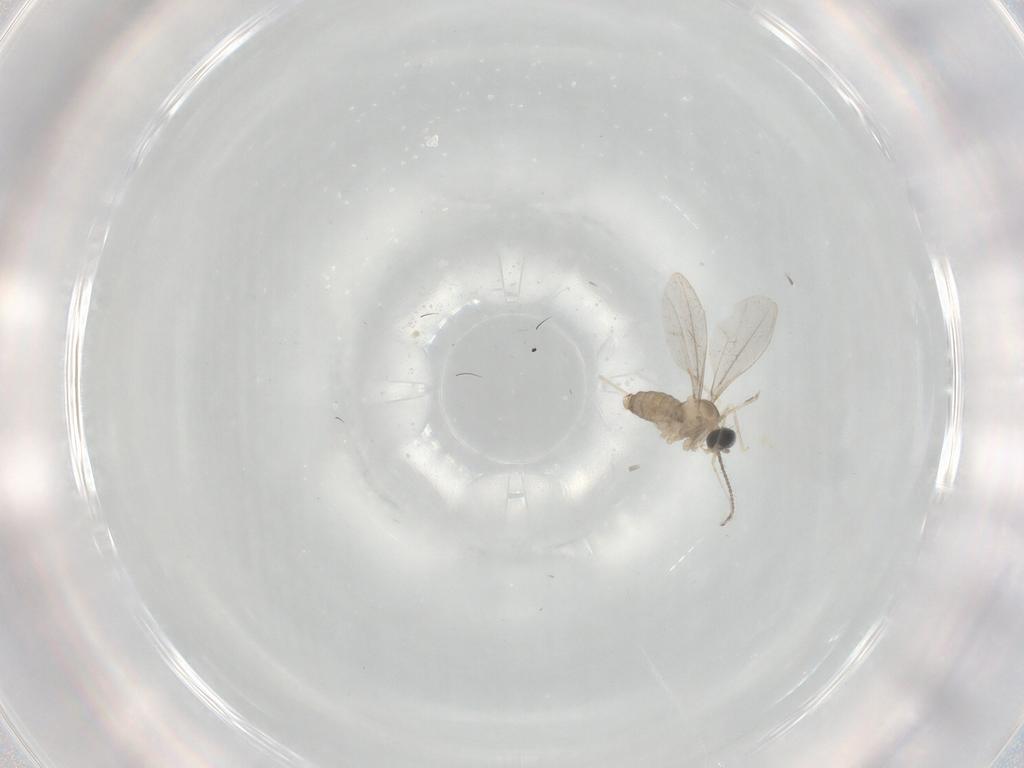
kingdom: Animalia
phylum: Arthropoda
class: Insecta
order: Diptera
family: Cecidomyiidae
